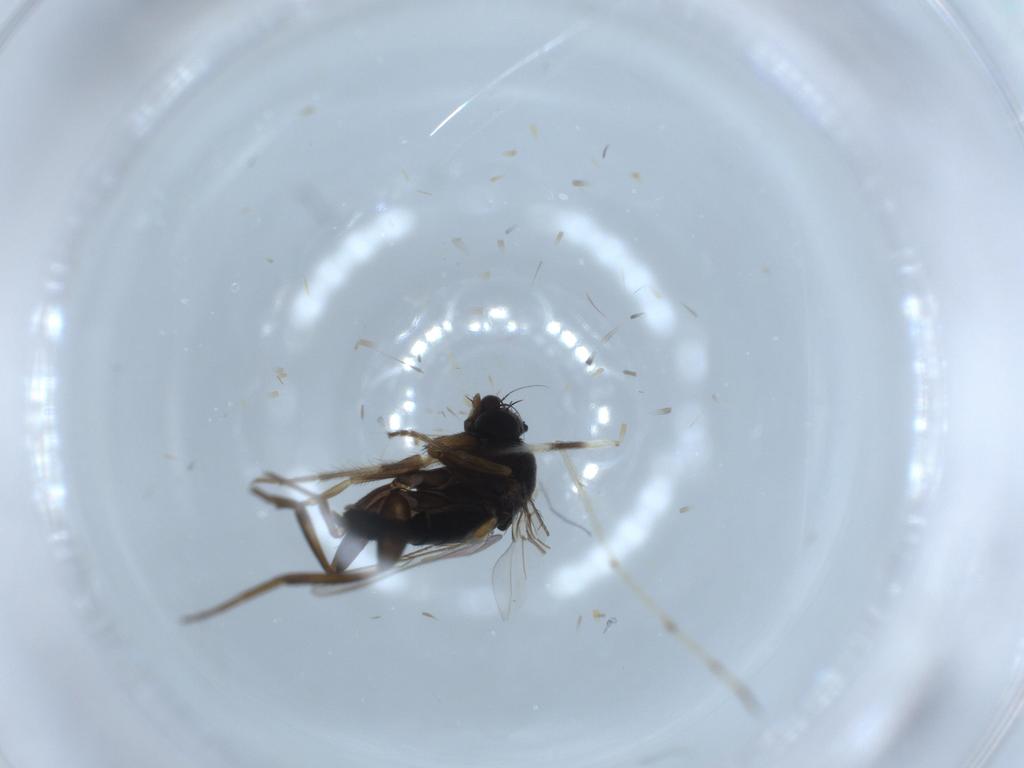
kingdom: Animalia
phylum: Arthropoda
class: Insecta
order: Diptera
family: Phoridae
